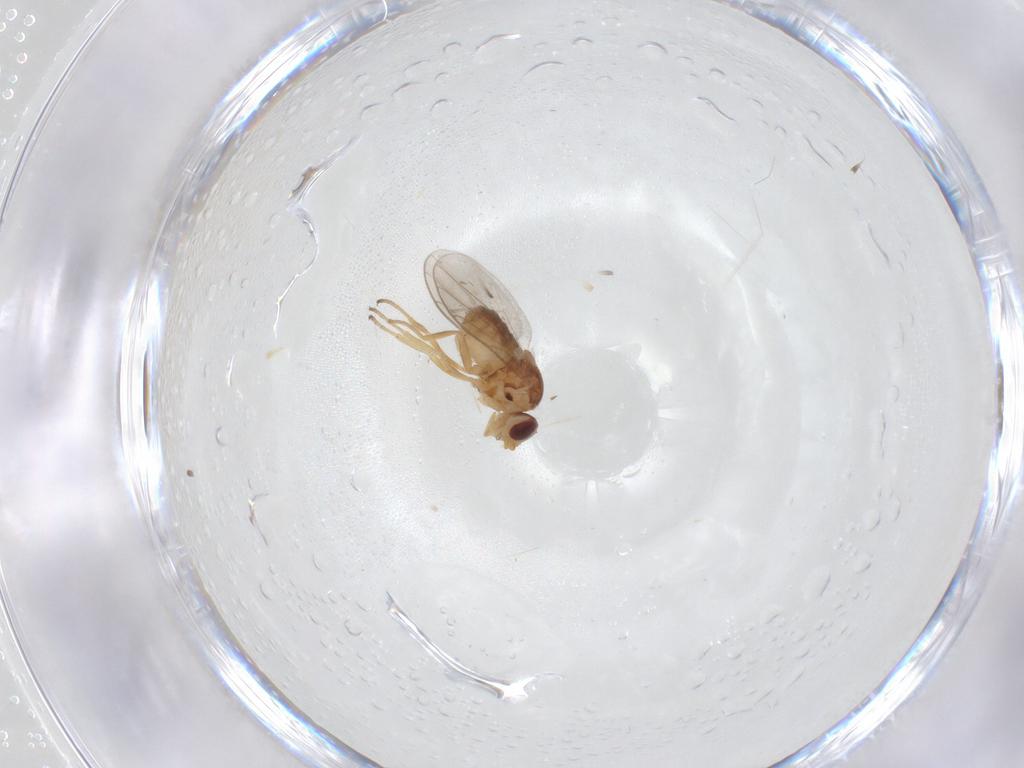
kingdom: Animalia
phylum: Arthropoda
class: Insecta
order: Diptera
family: Chloropidae
